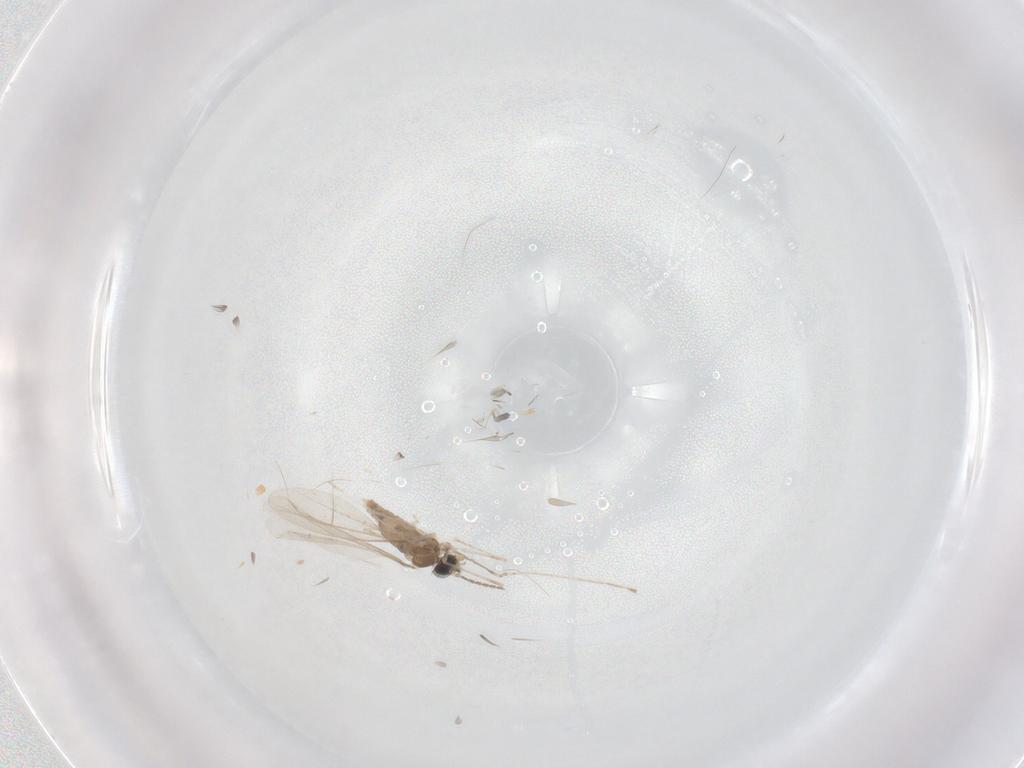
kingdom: Animalia
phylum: Arthropoda
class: Insecta
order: Diptera
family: Cecidomyiidae
